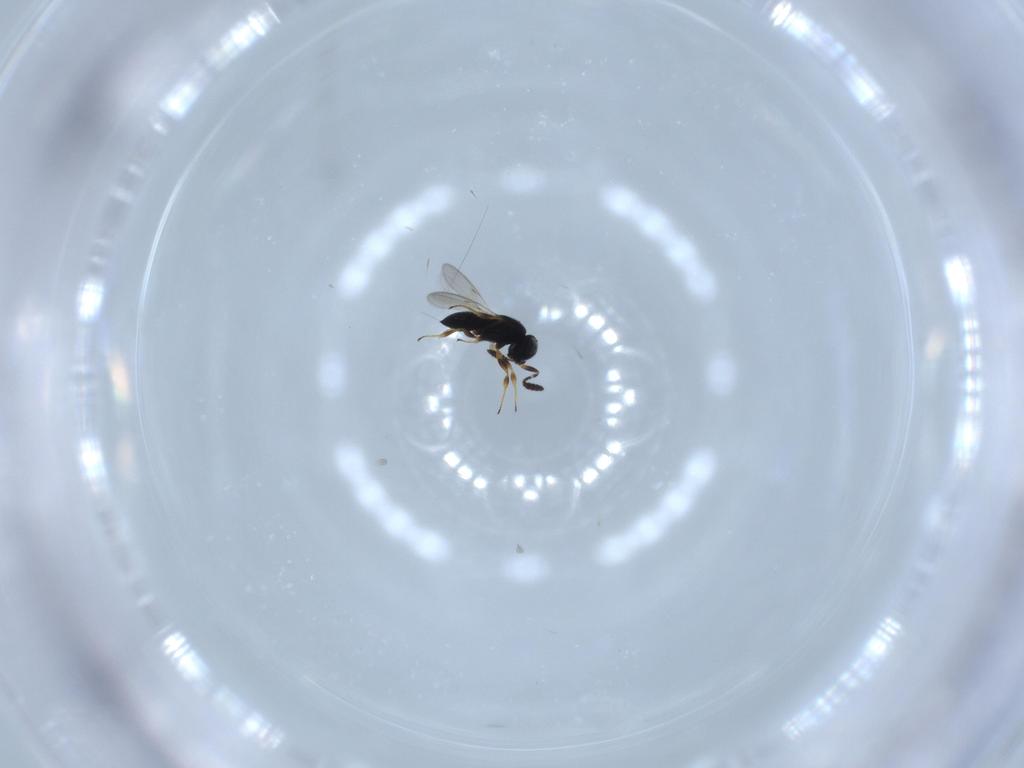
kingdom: Animalia
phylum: Arthropoda
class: Insecta
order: Hymenoptera
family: Scelionidae
